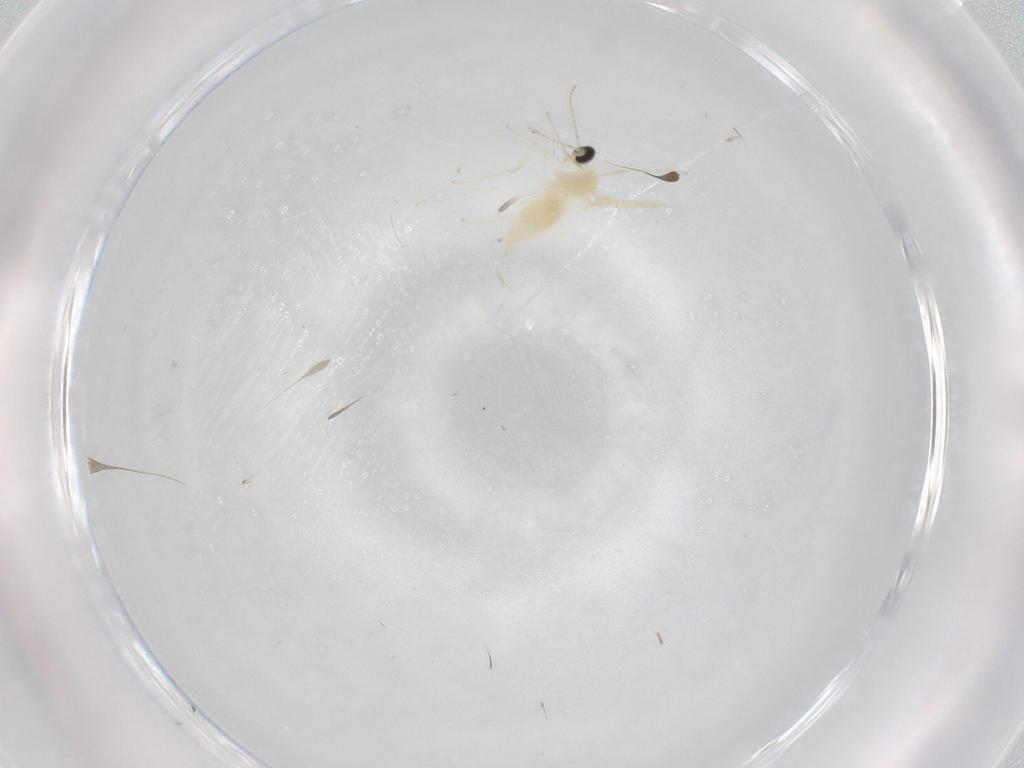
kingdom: Animalia
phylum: Arthropoda
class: Insecta
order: Diptera
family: Cecidomyiidae
